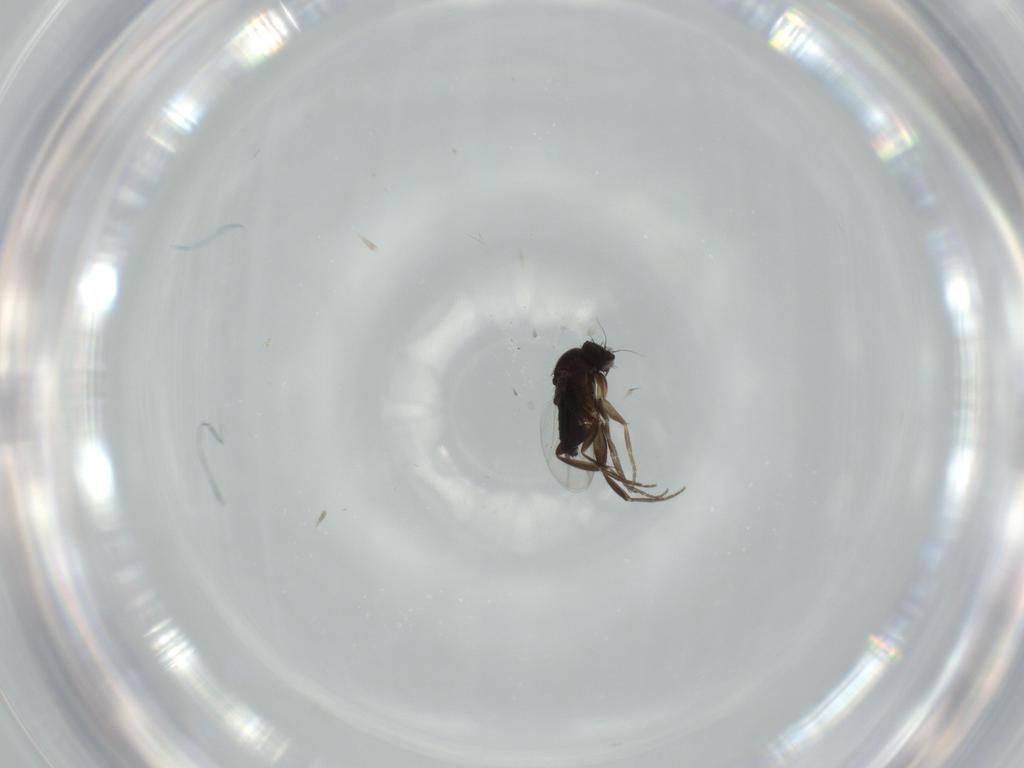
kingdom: Animalia
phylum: Arthropoda
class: Insecta
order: Diptera
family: Phoridae
